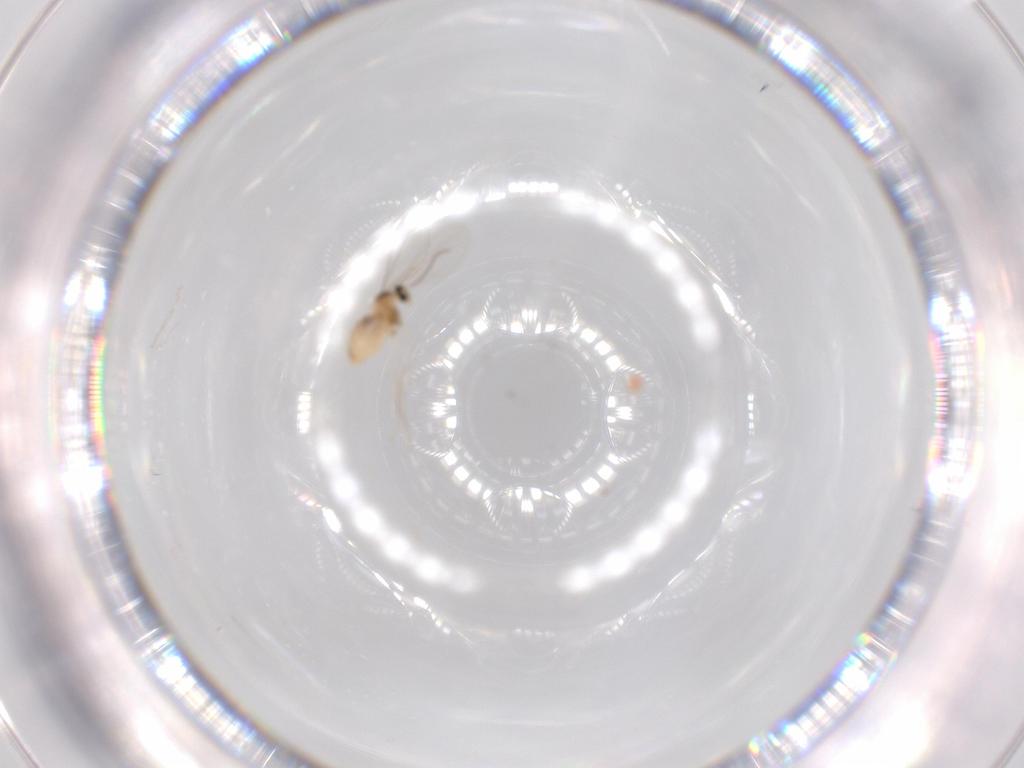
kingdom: Animalia
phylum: Arthropoda
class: Insecta
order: Diptera
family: Cecidomyiidae
